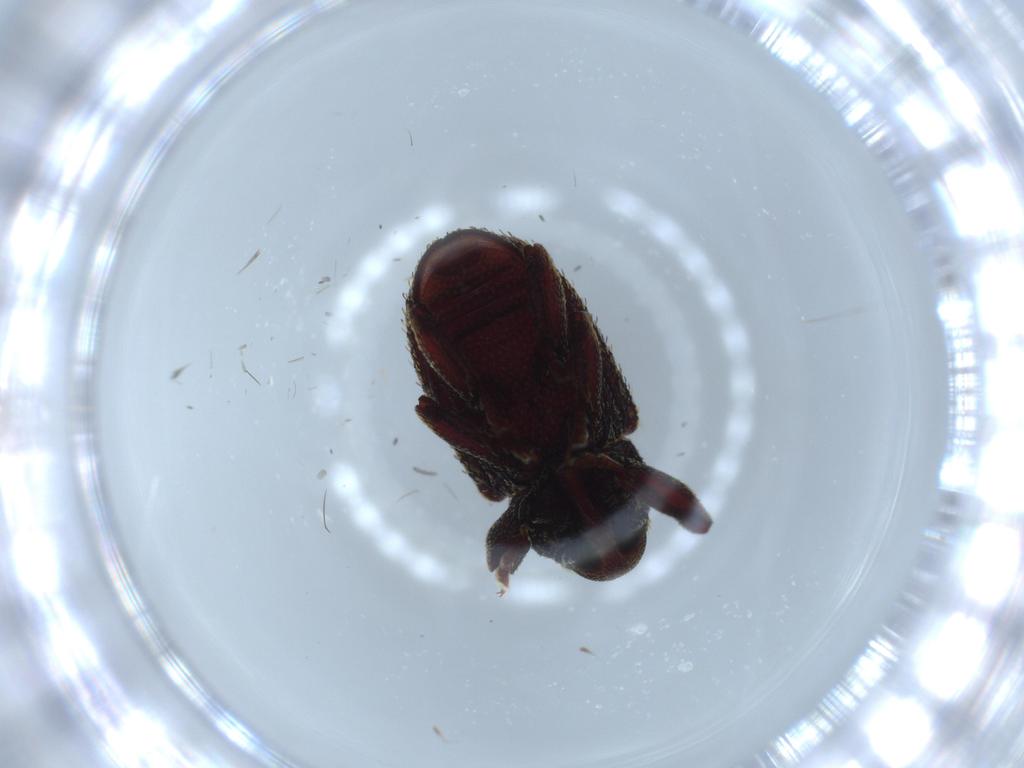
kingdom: Animalia
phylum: Arthropoda
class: Insecta
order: Coleoptera
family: Curculionidae
